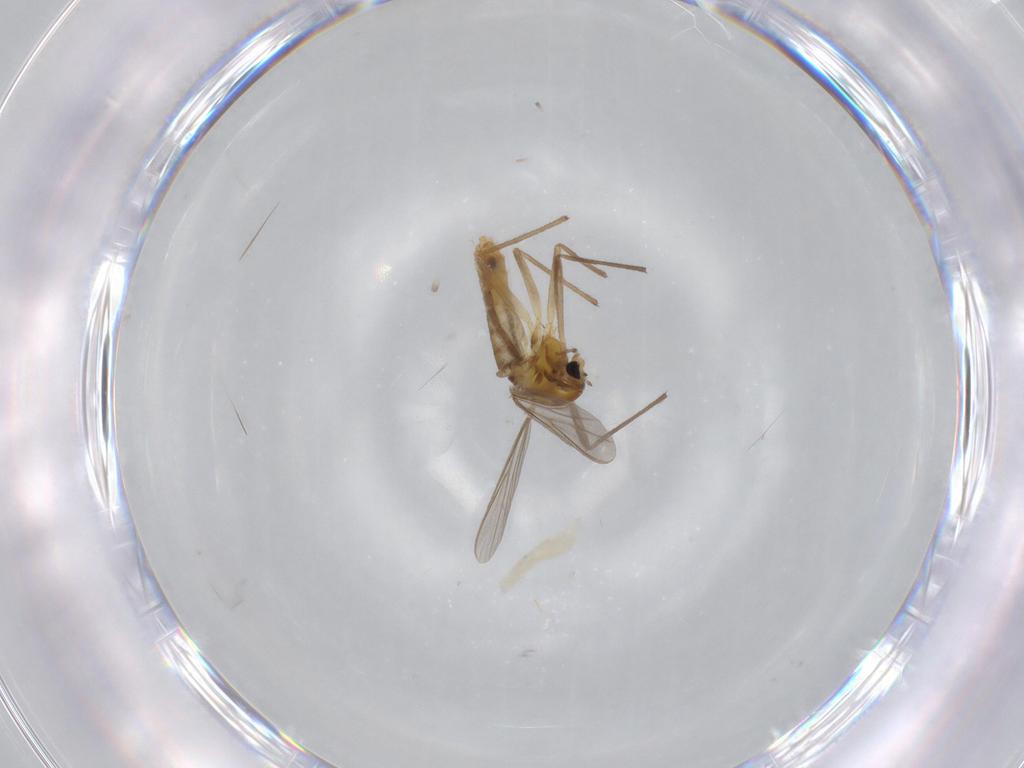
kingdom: Animalia
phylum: Arthropoda
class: Insecta
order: Diptera
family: Chironomidae
